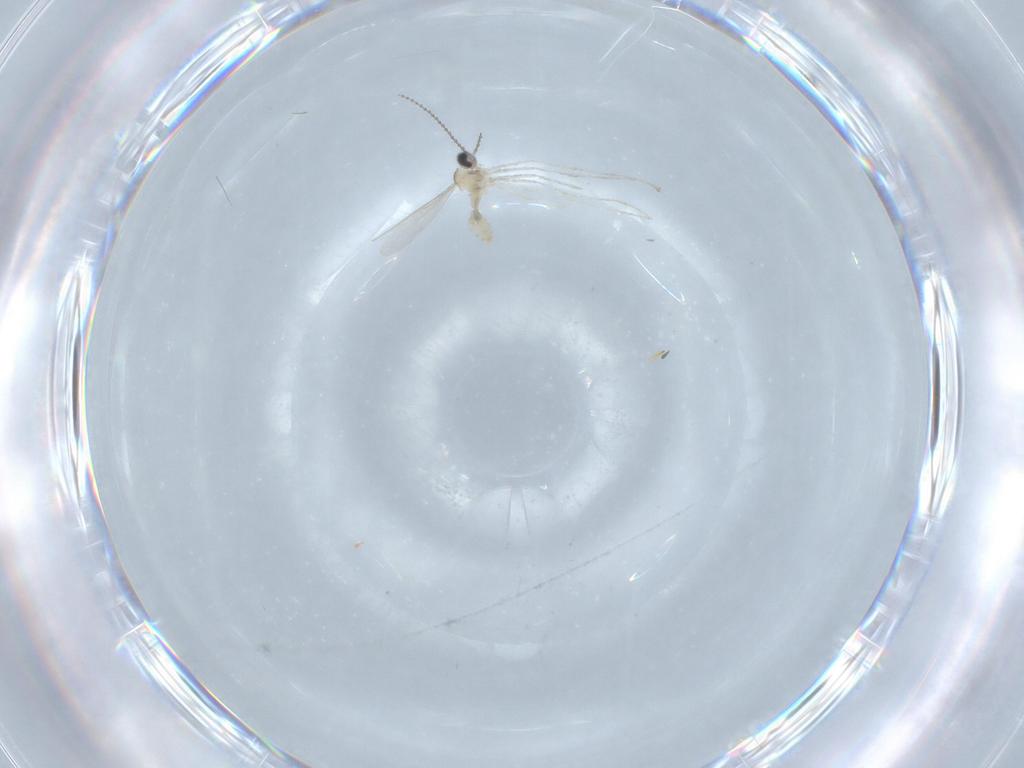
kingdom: Animalia
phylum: Arthropoda
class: Insecta
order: Diptera
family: Cecidomyiidae
